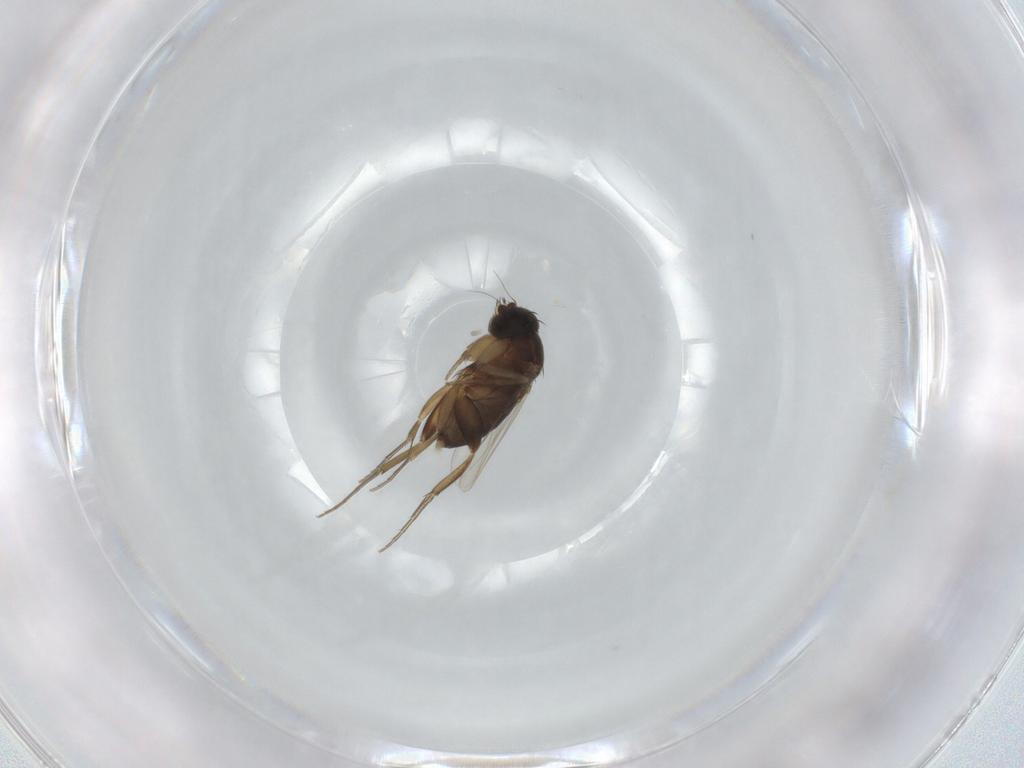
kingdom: Animalia
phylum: Arthropoda
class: Insecta
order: Diptera
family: Phoridae
